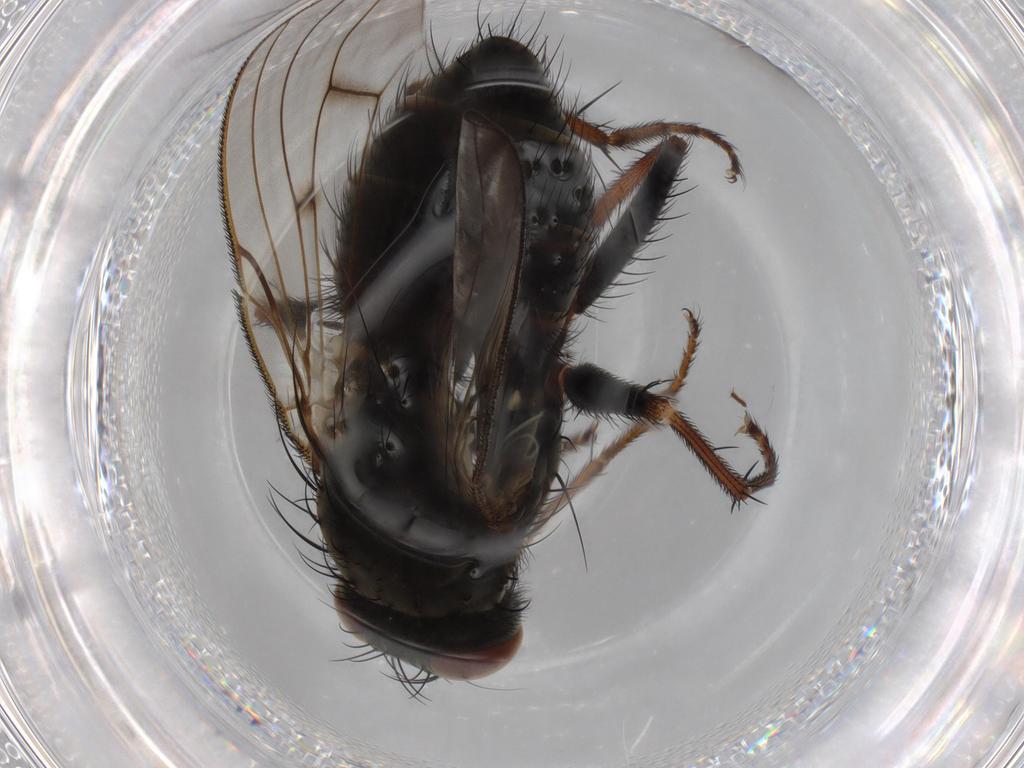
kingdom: Animalia
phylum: Arthropoda
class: Insecta
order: Diptera
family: Muscidae
